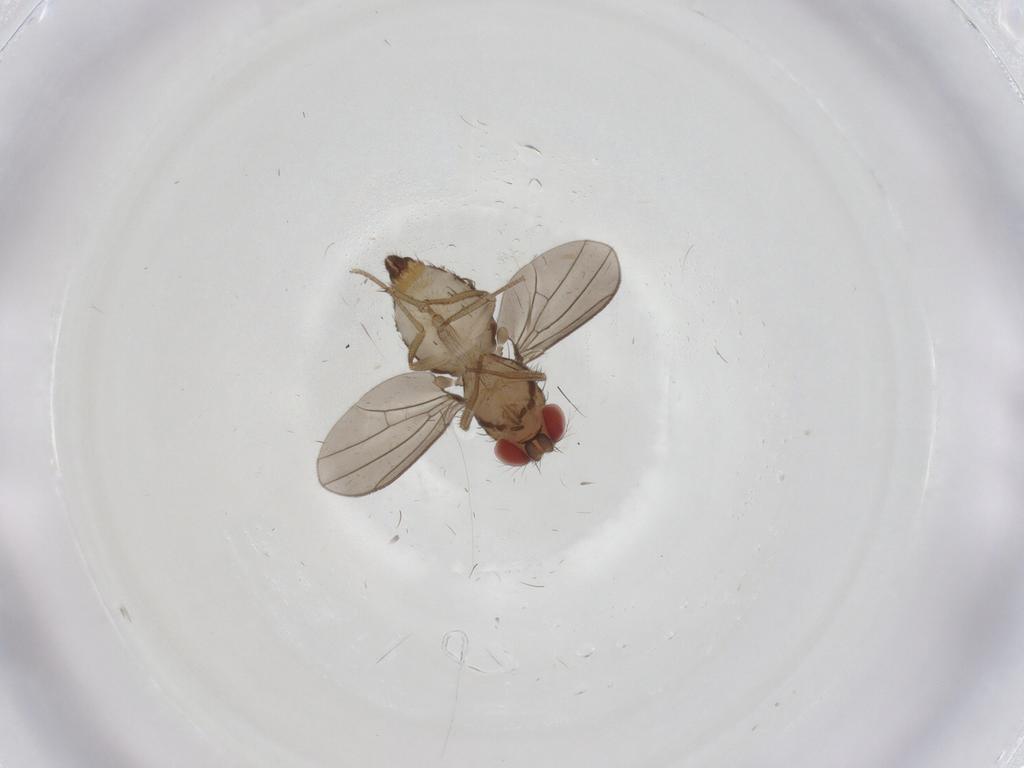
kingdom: Animalia
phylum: Arthropoda
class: Insecta
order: Diptera
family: Drosophilidae
